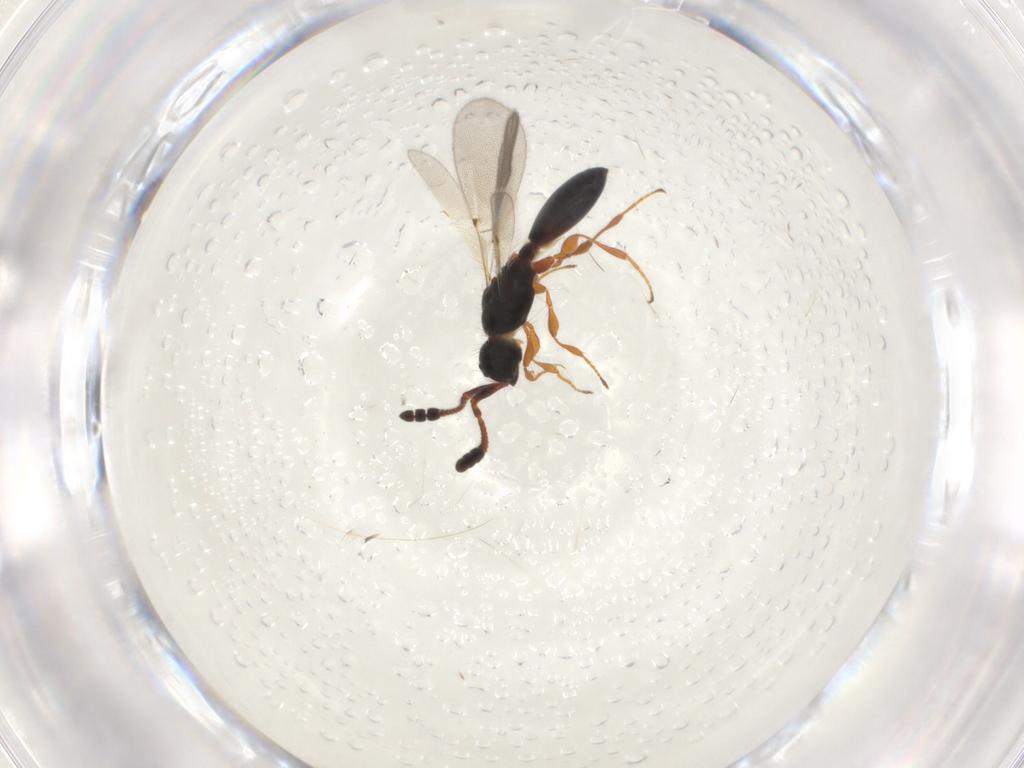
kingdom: Animalia
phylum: Arthropoda
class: Insecta
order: Hymenoptera
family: Diapriidae
